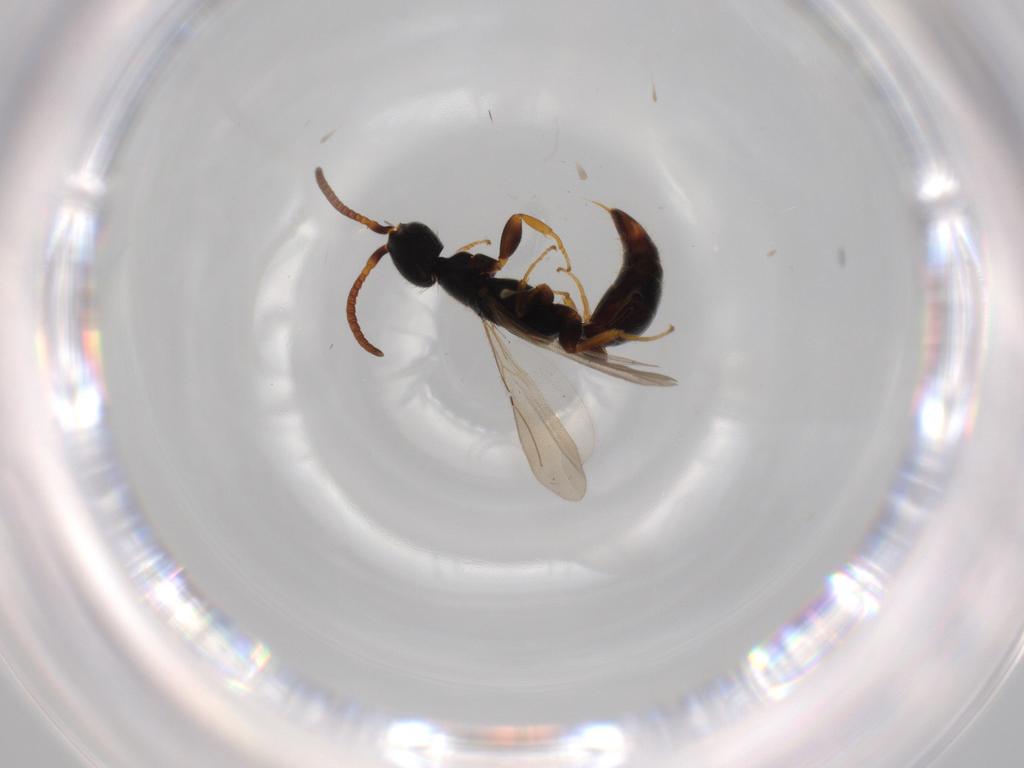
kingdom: Animalia
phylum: Arthropoda
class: Insecta
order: Hymenoptera
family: Bethylidae
